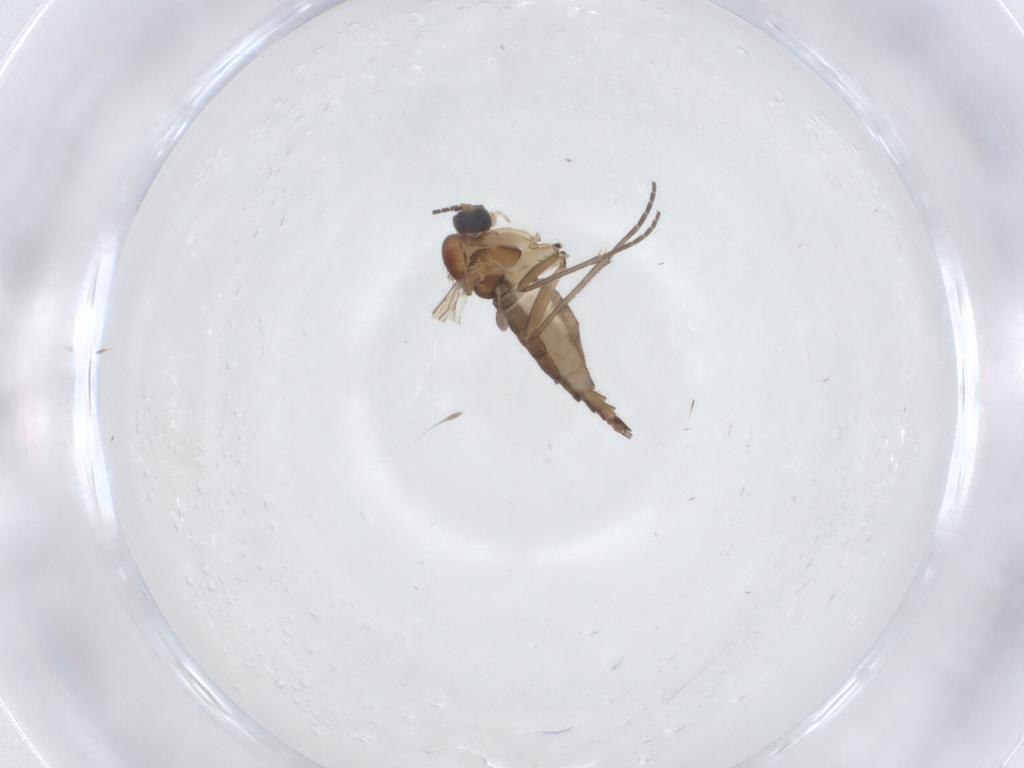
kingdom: Animalia
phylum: Arthropoda
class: Insecta
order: Diptera
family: Sciaridae
